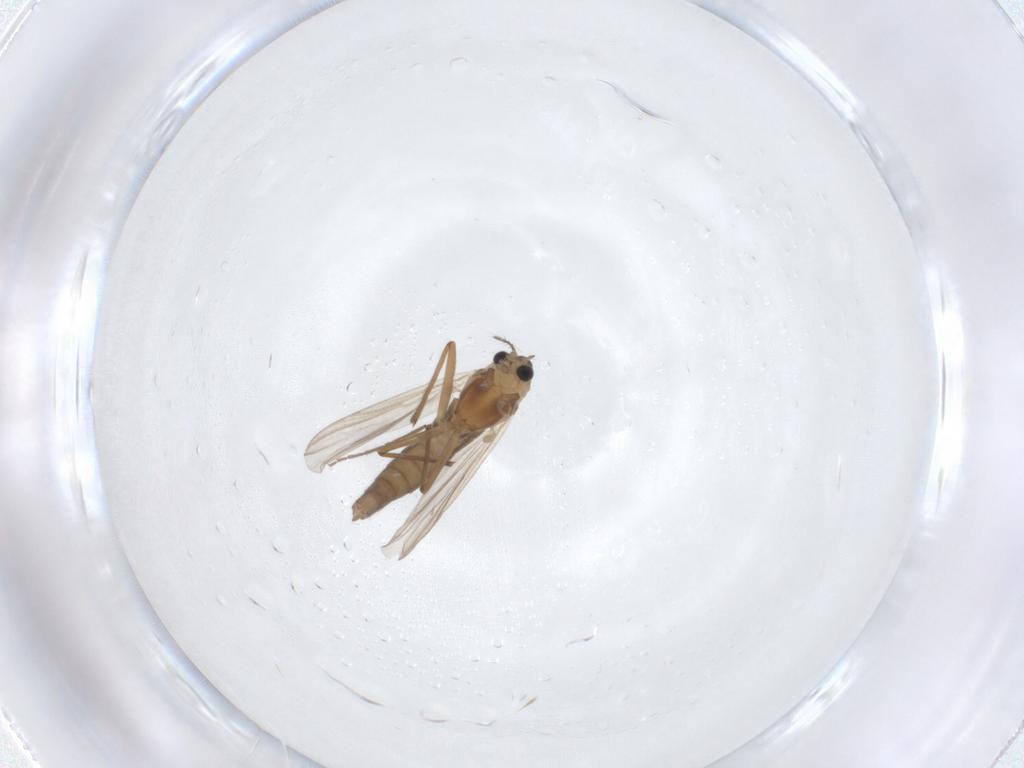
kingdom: Animalia
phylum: Arthropoda
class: Insecta
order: Diptera
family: Chironomidae
